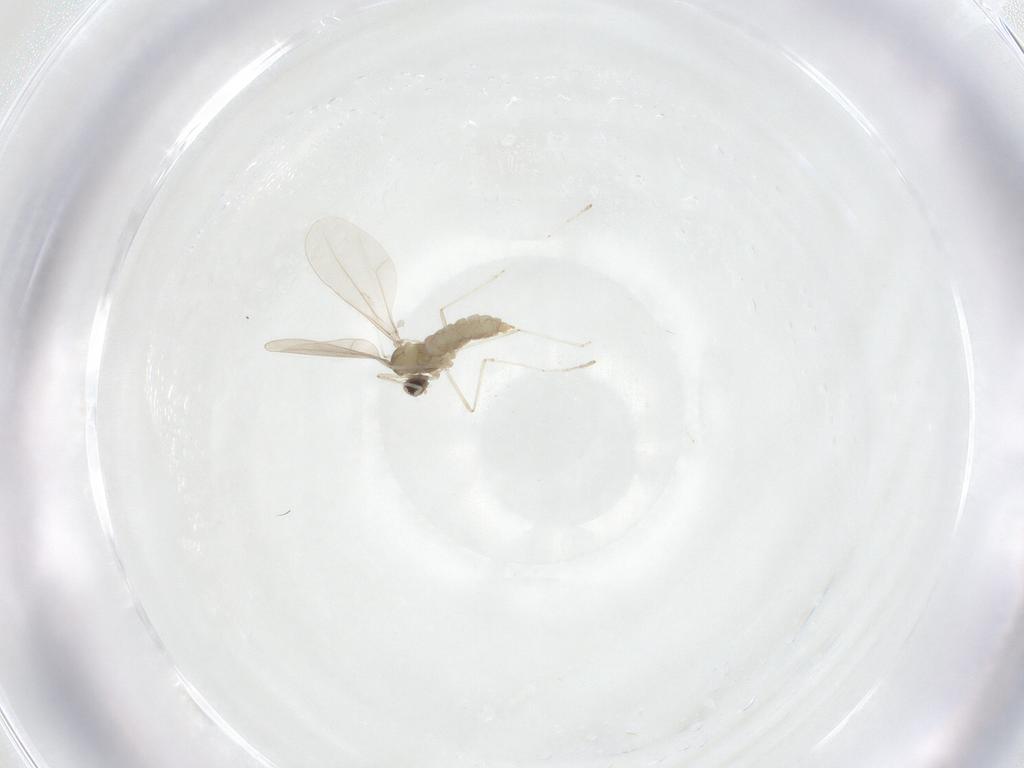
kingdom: Animalia
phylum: Arthropoda
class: Insecta
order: Diptera
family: Cecidomyiidae
